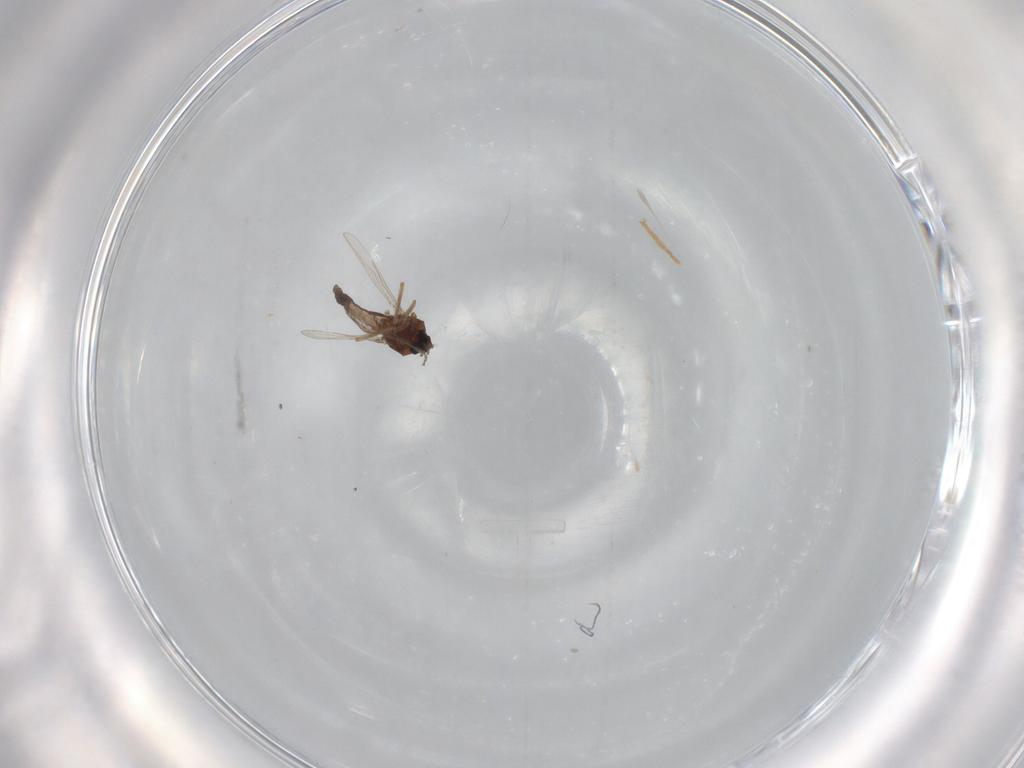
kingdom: Animalia
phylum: Arthropoda
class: Insecta
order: Diptera
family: Ceratopogonidae
